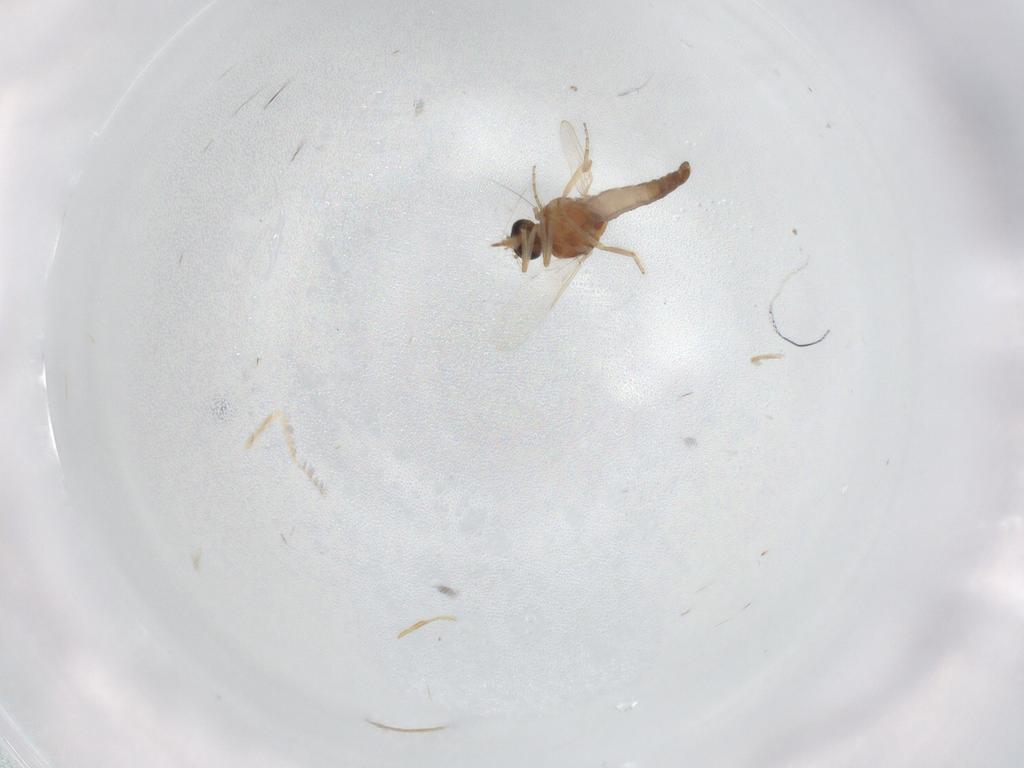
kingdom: Animalia
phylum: Arthropoda
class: Insecta
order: Diptera
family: Ceratopogonidae
